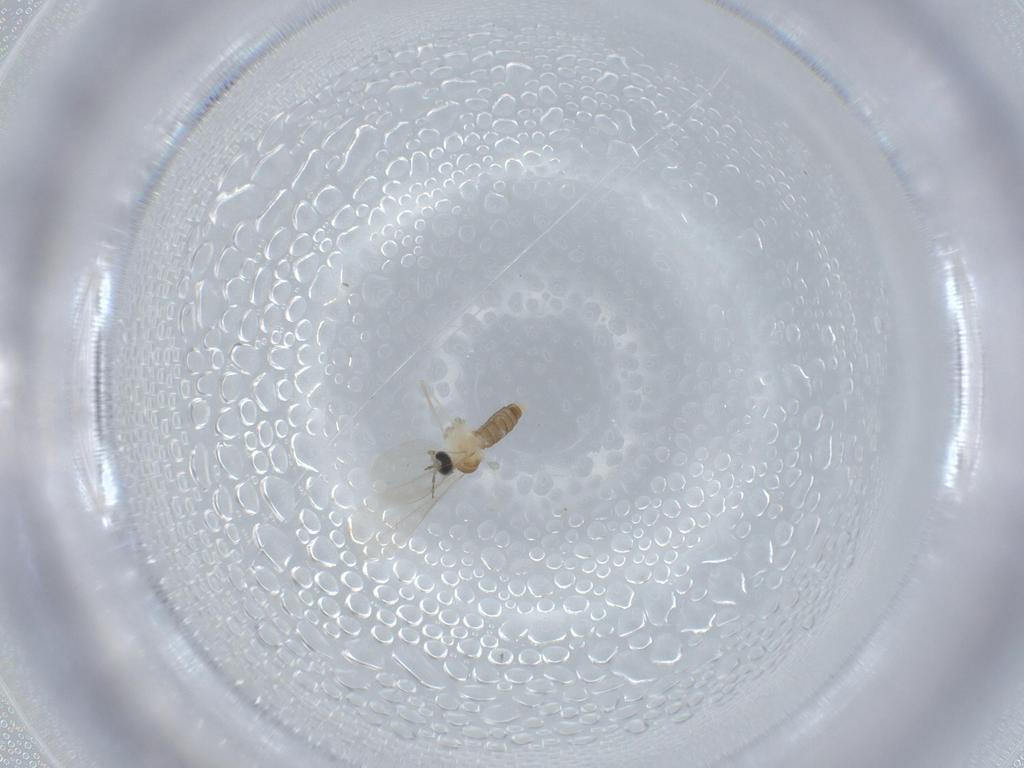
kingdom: Animalia
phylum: Arthropoda
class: Insecta
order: Diptera
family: Cecidomyiidae
